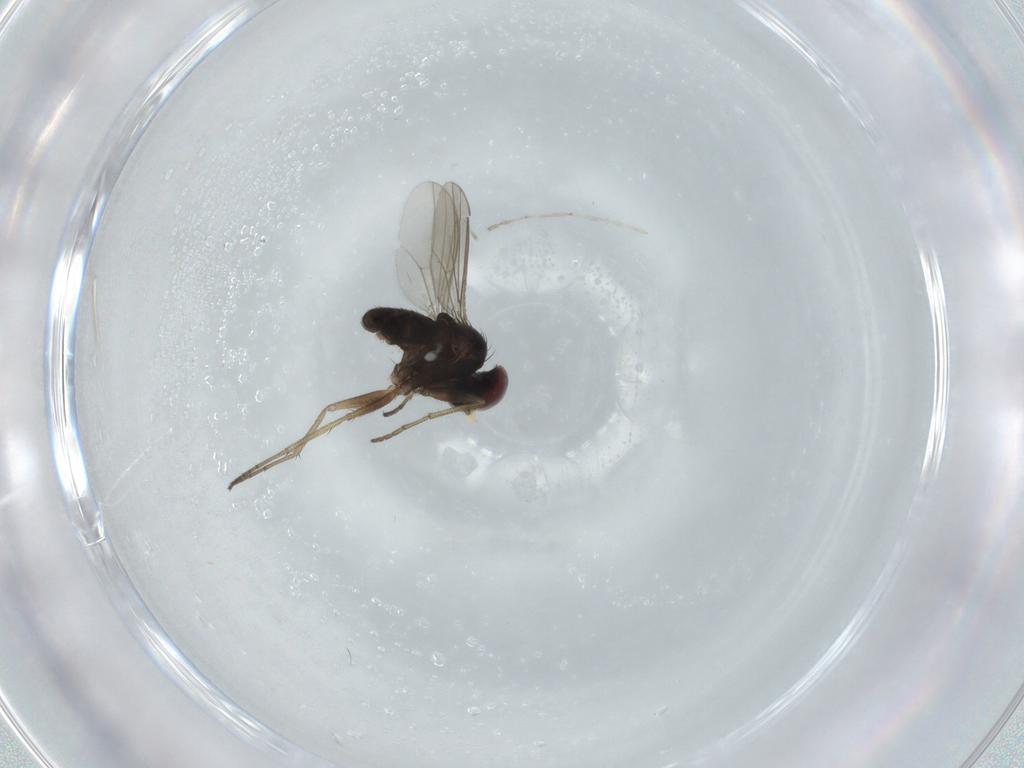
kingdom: Animalia
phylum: Arthropoda
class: Insecta
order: Diptera
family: Dolichopodidae
